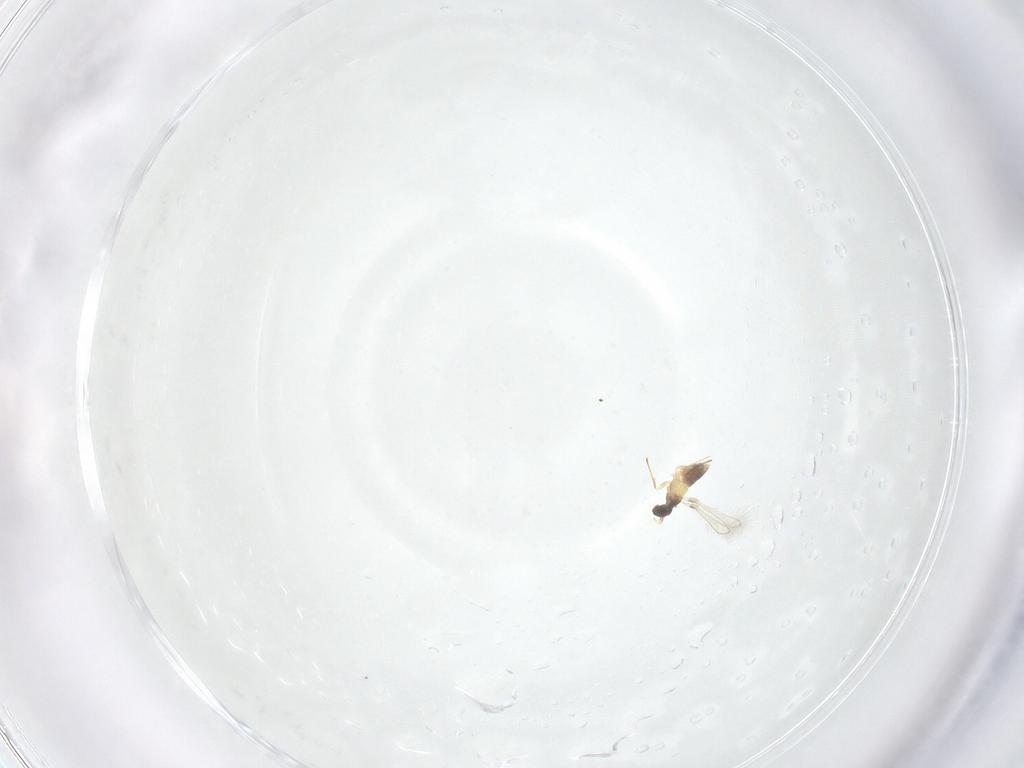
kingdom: Animalia
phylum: Arthropoda
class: Insecta
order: Hymenoptera
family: Mymaridae
